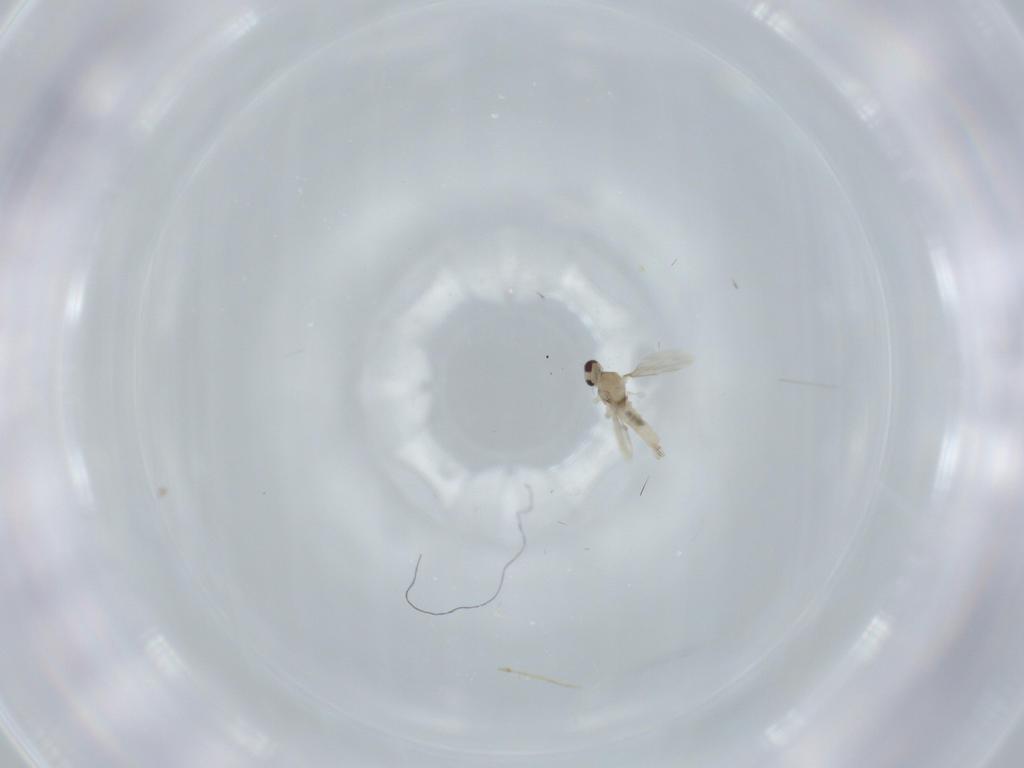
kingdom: Animalia
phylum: Arthropoda
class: Insecta
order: Diptera
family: Cecidomyiidae
